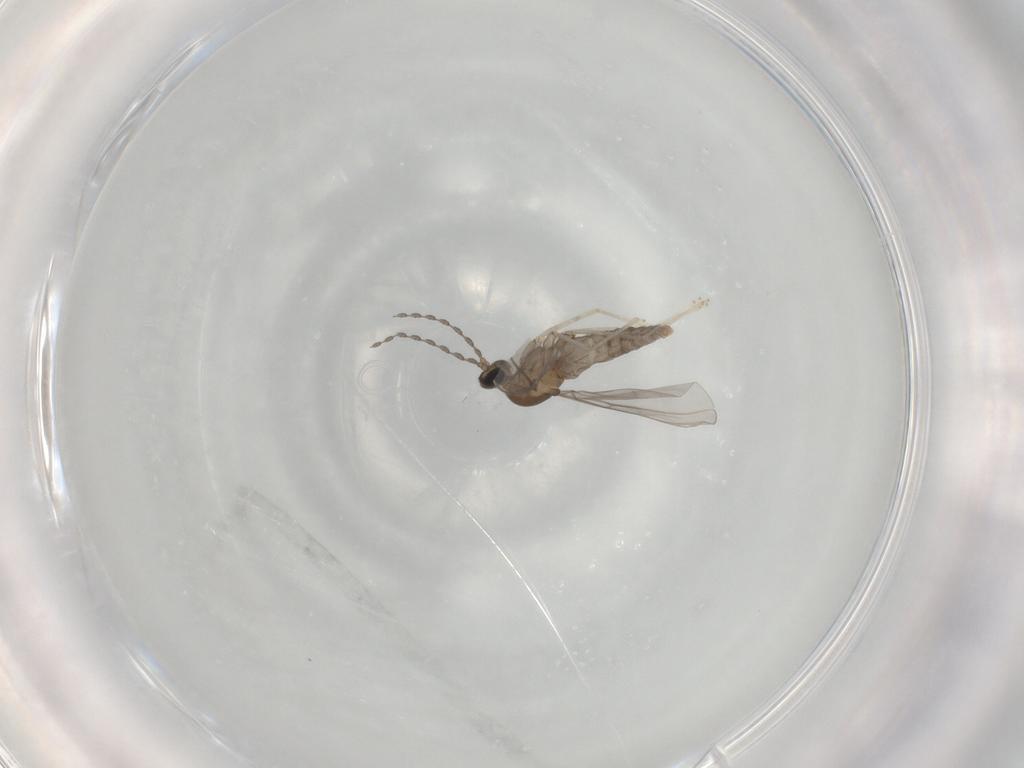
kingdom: Animalia
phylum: Arthropoda
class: Insecta
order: Diptera
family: Cecidomyiidae
